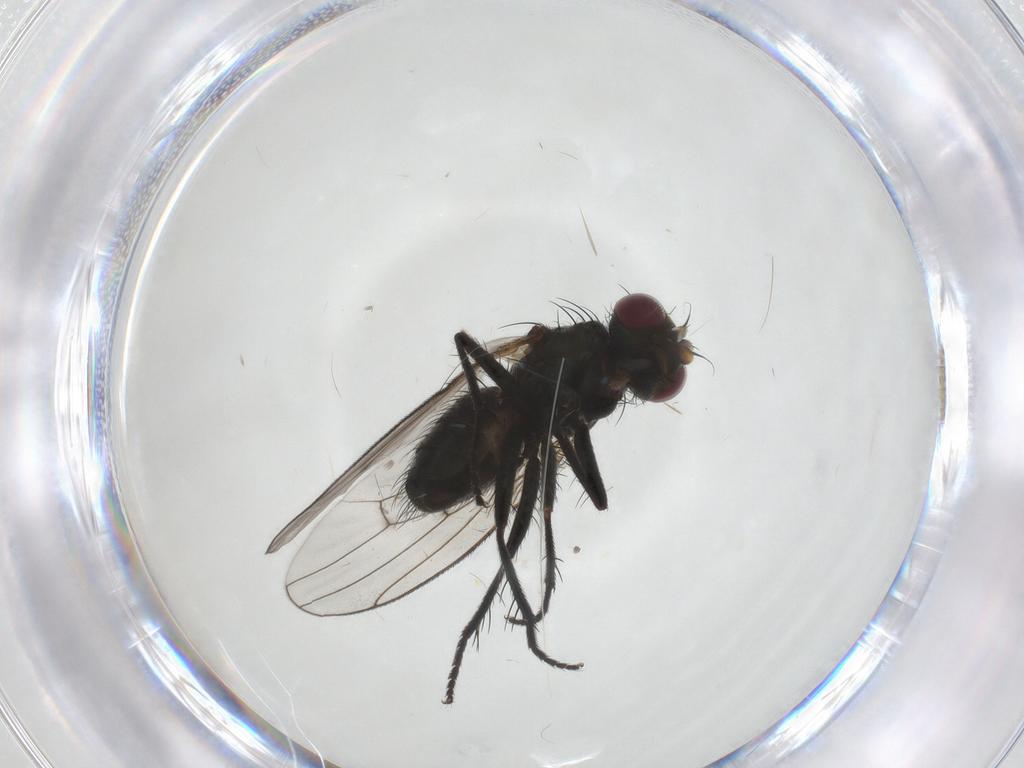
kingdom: Animalia
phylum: Arthropoda
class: Insecta
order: Diptera
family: Muscidae
